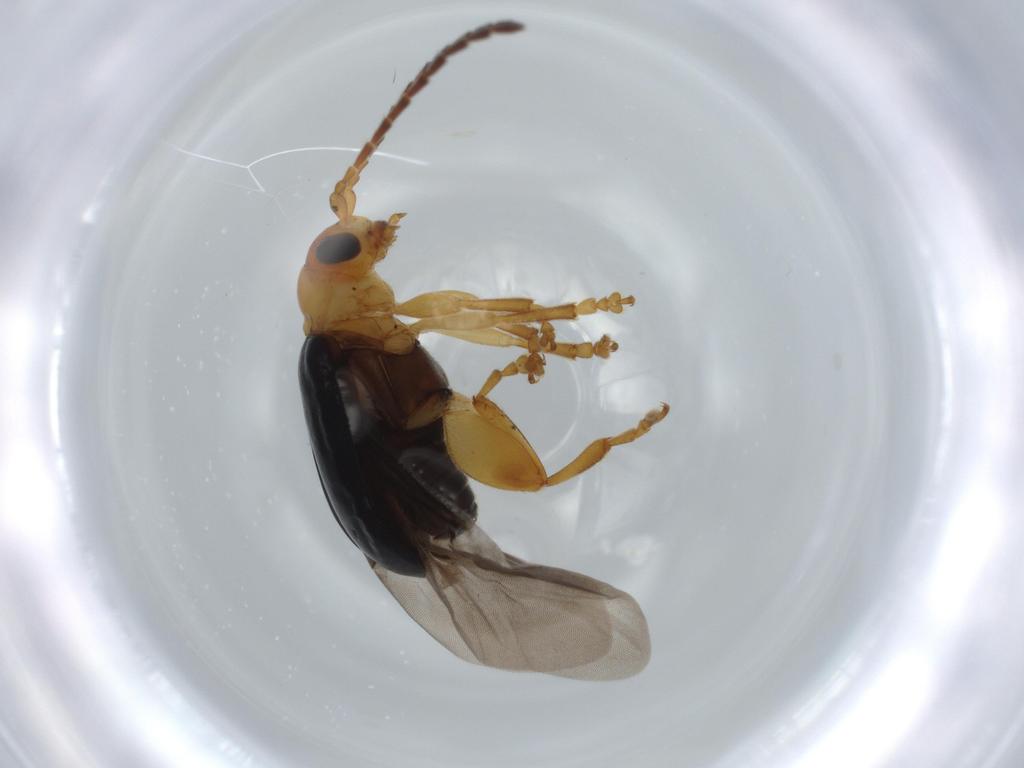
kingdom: Animalia
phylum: Arthropoda
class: Insecta
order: Coleoptera
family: Chrysomelidae
